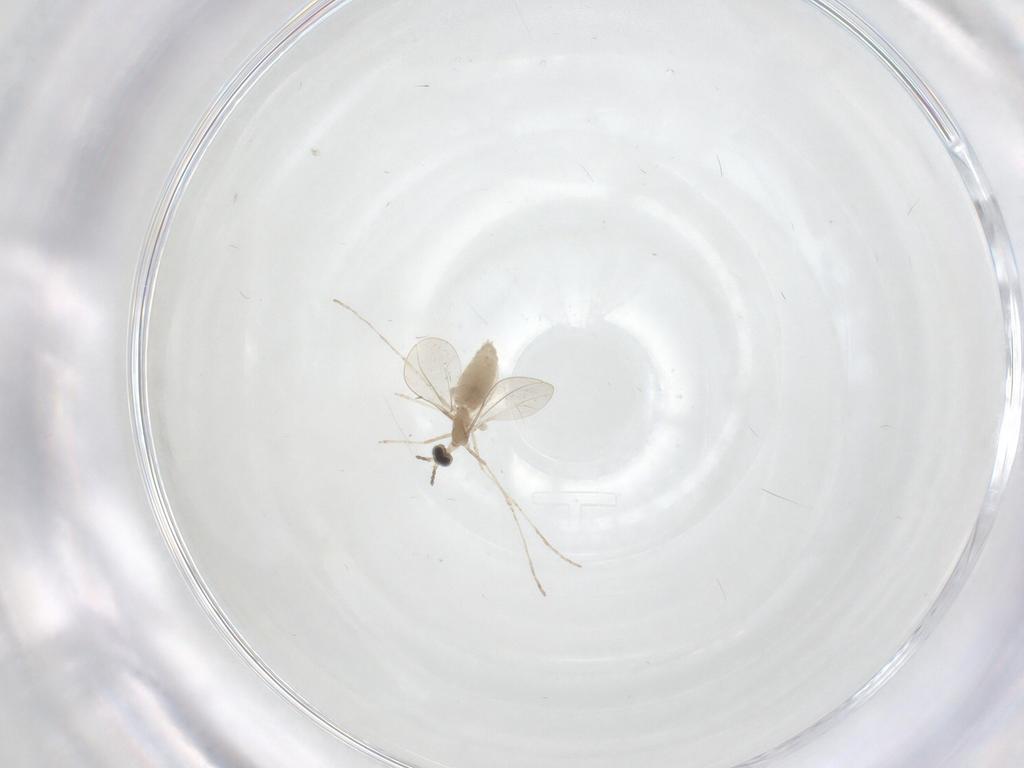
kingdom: Animalia
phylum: Arthropoda
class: Insecta
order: Diptera
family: Cecidomyiidae
